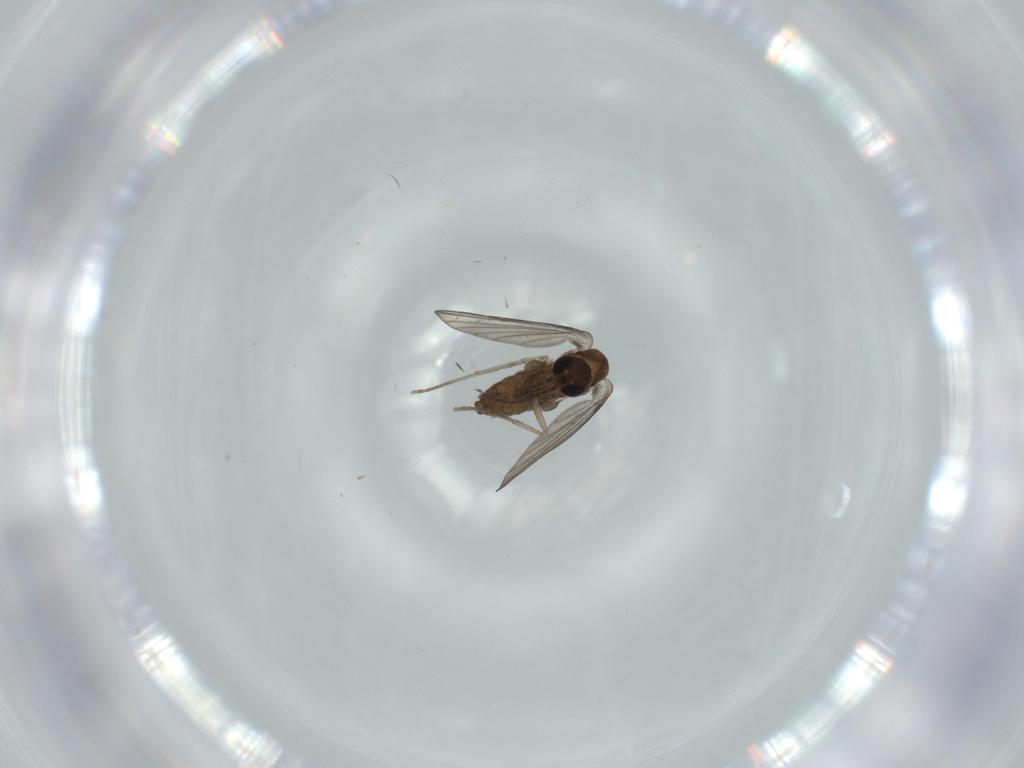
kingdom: Animalia
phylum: Arthropoda
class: Insecta
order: Diptera
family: Psychodidae
